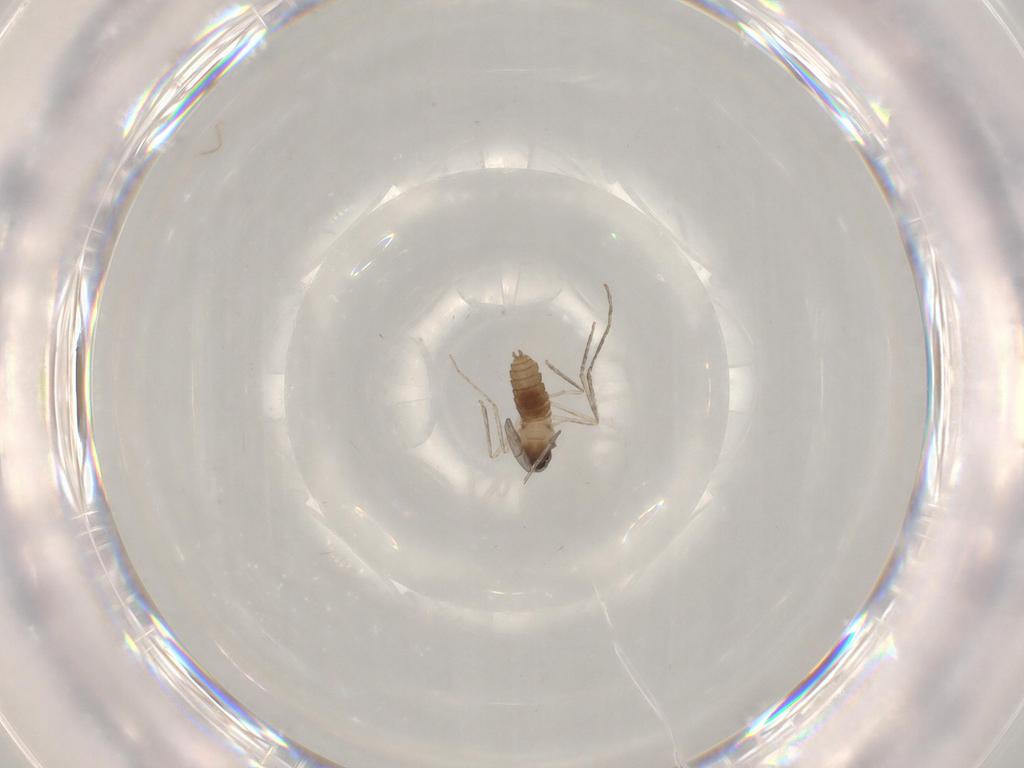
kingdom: Animalia
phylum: Arthropoda
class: Insecta
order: Diptera
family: Cecidomyiidae
